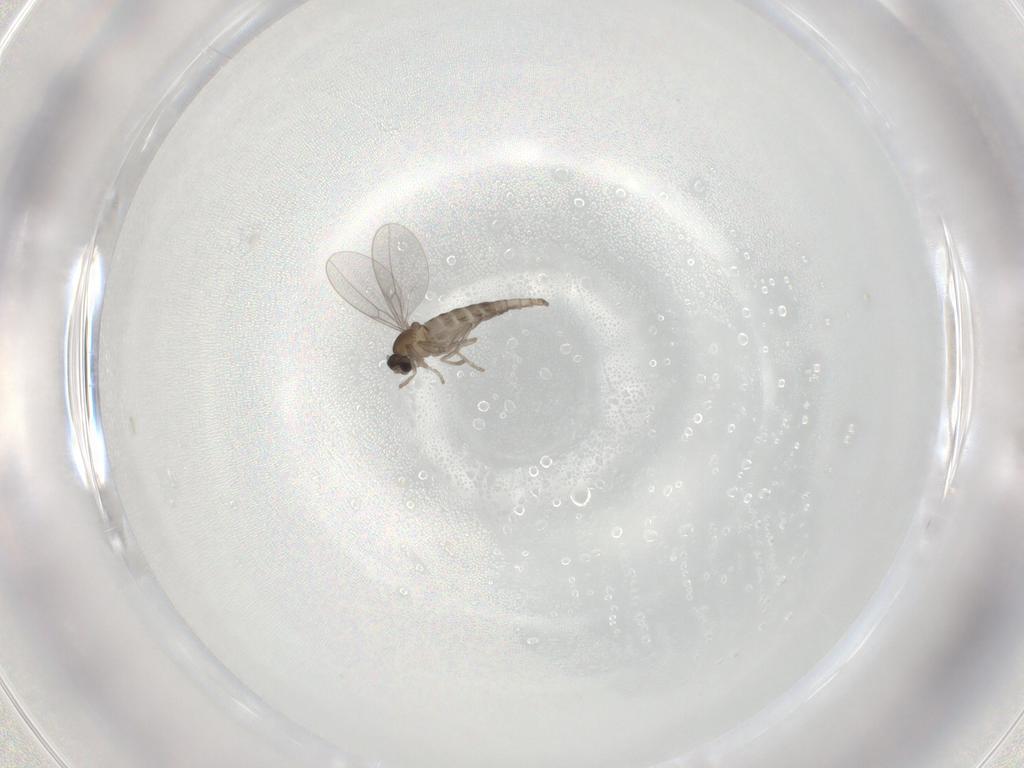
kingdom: Animalia
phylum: Arthropoda
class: Insecta
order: Diptera
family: Cecidomyiidae
